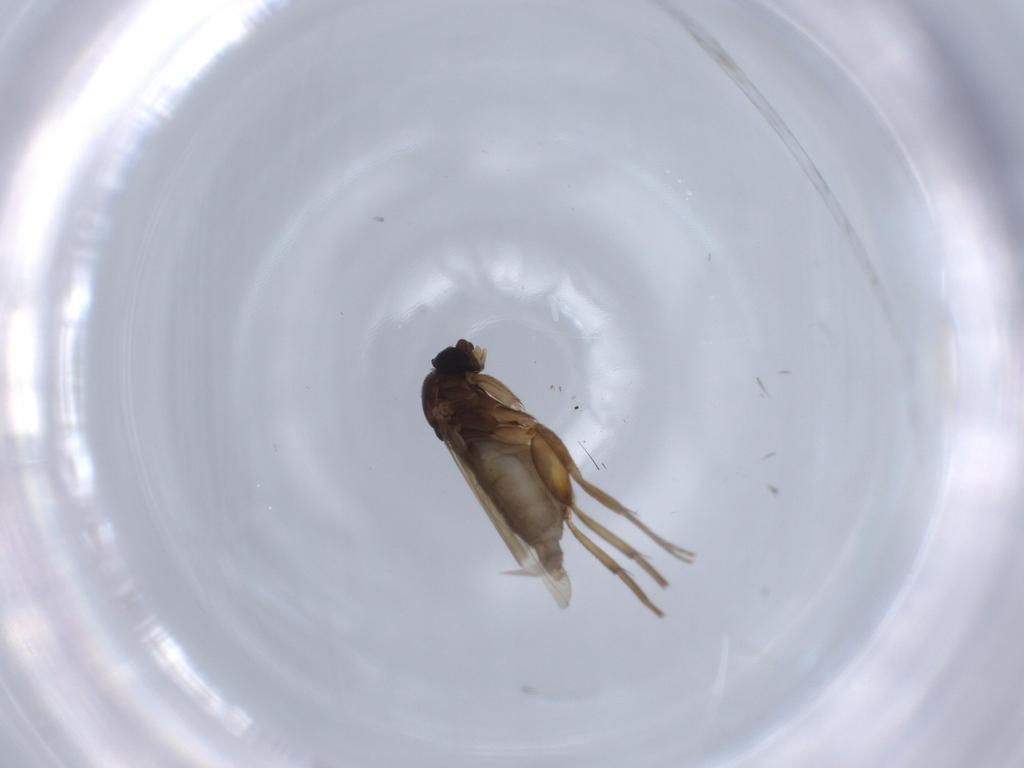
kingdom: Animalia
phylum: Arthropoda
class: Insecta
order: Diptera
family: Phoridae
